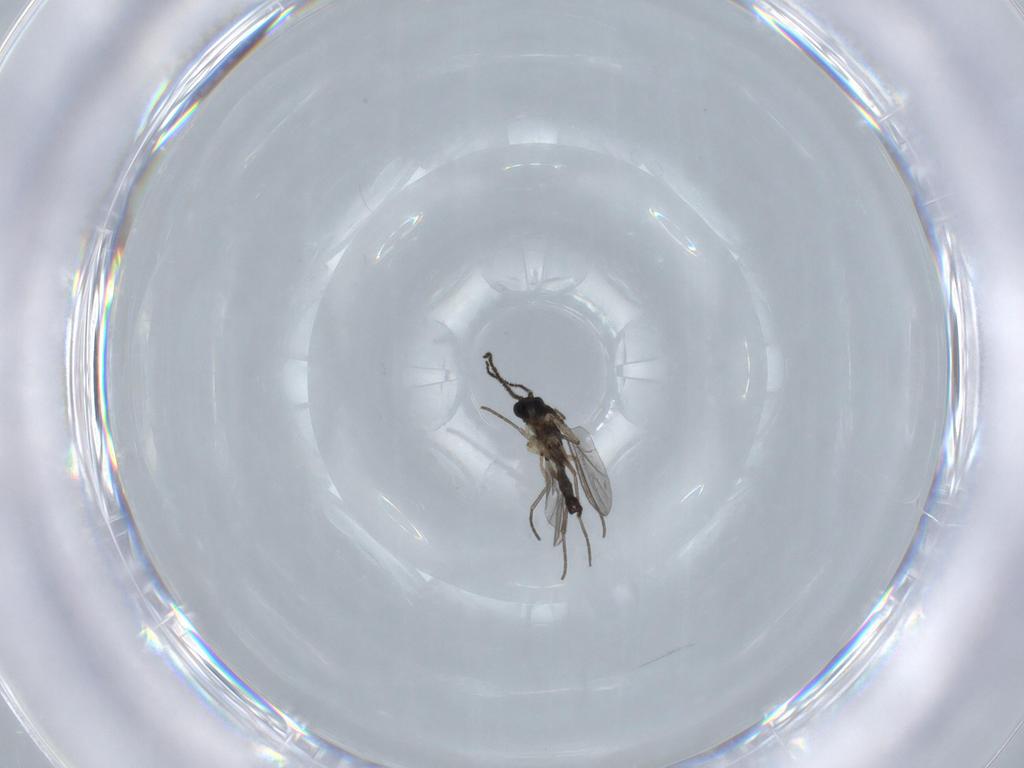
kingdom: Animalia
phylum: Arthropoda
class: Insecta
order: Diptera
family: Sciaridae
